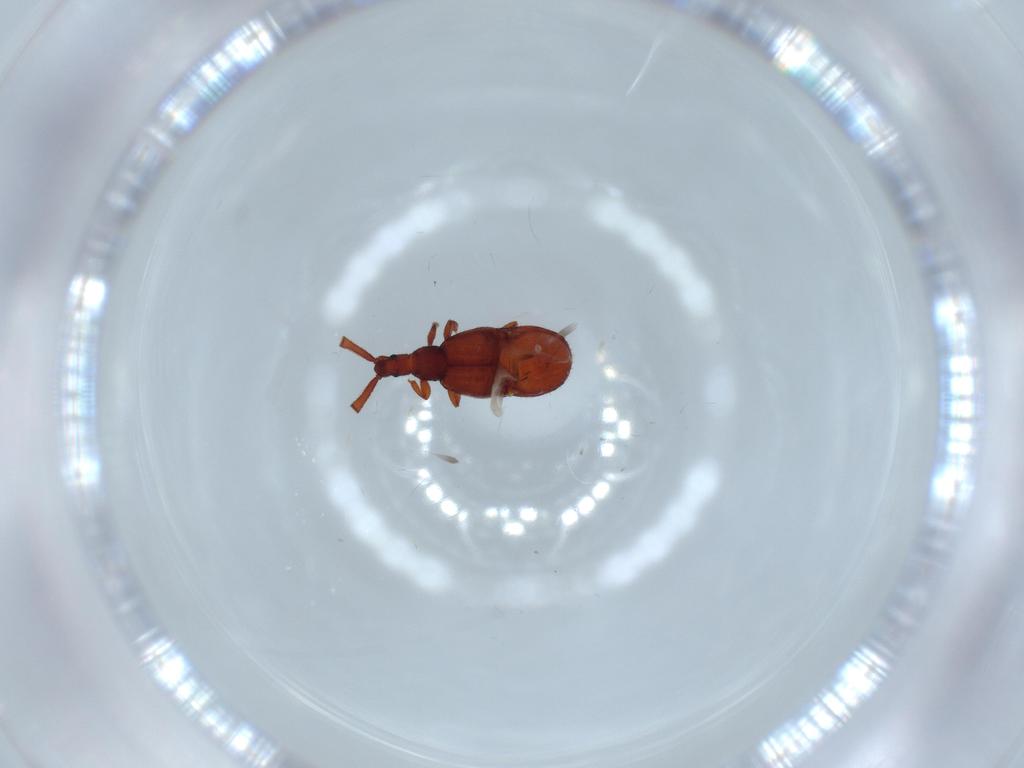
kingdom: Animalia
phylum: Arthropoda
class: Insecta
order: Coleoptera
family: Staphylinidae
